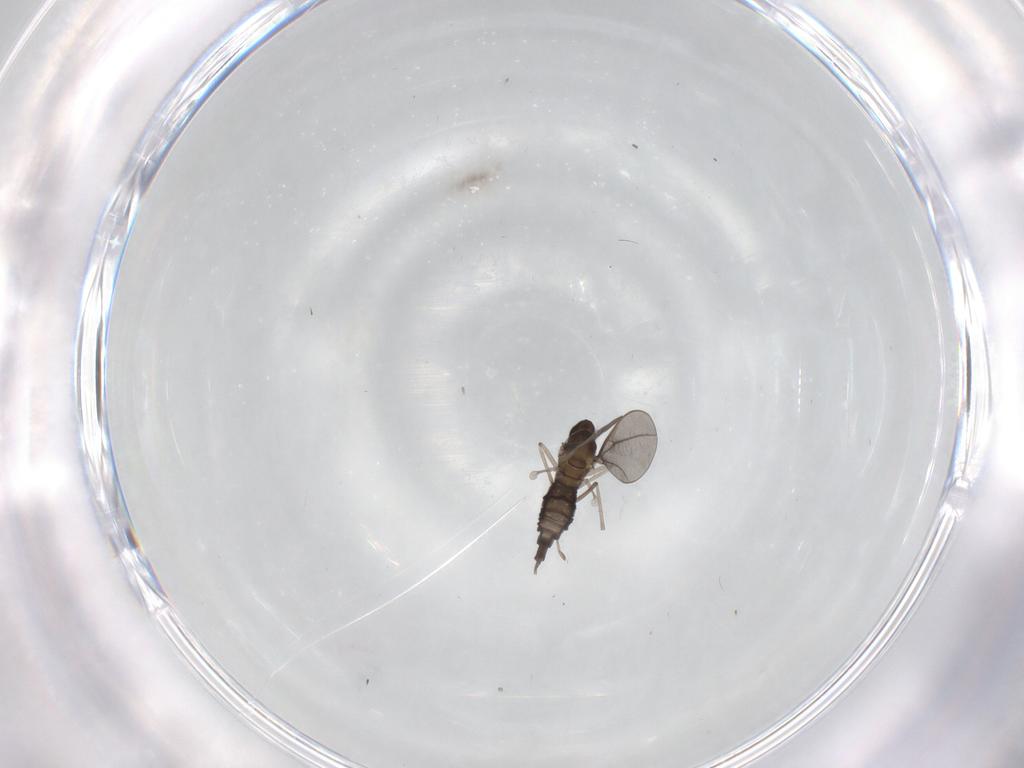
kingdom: Animalia
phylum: Arthropoda
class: Insecta
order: Diptera
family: Cecidomyiidae
